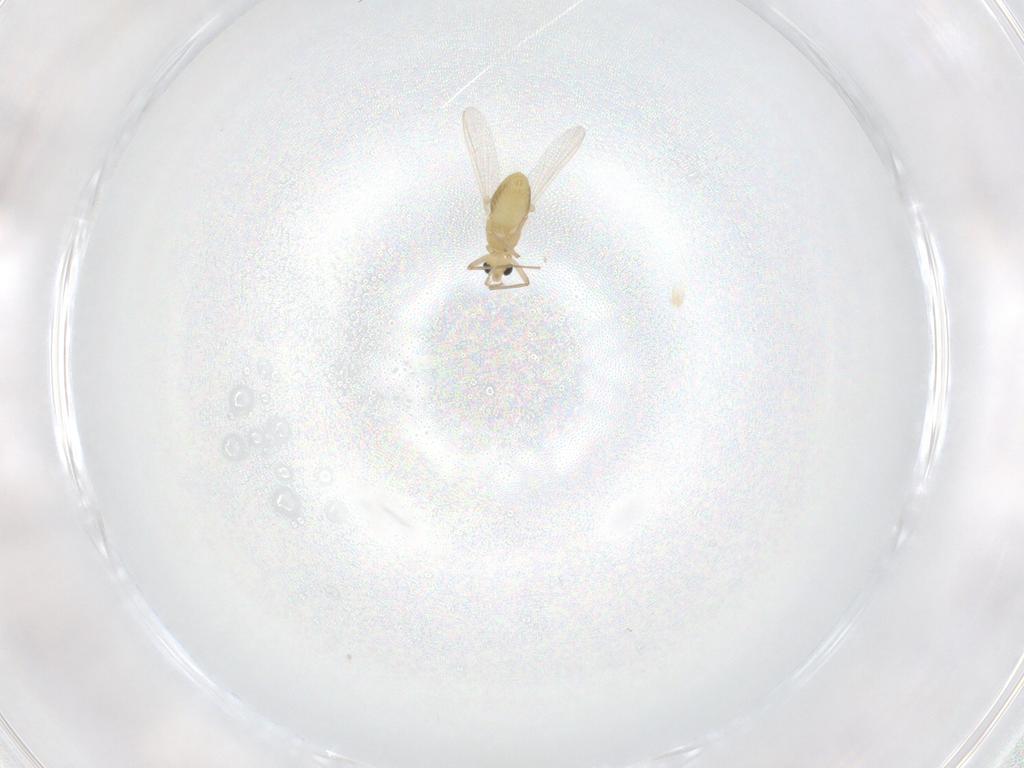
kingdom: Animalia
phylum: Arthropoda
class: Insecta
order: Diptera
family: Chironomidae
